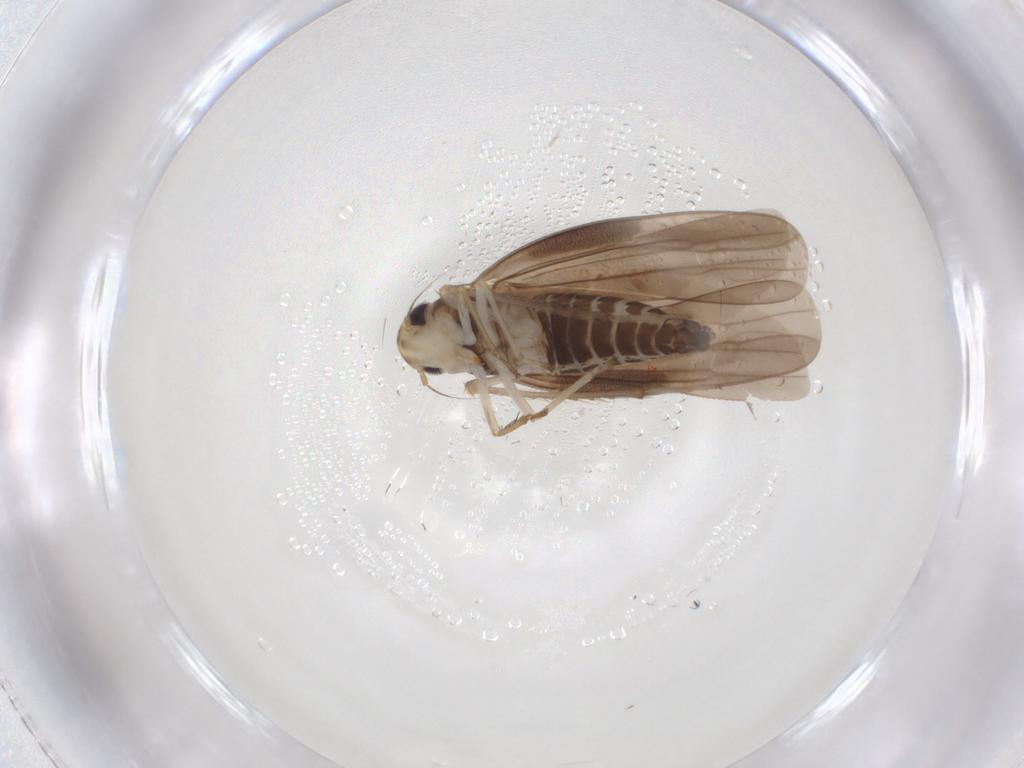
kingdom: Animalia
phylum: Arthropoda
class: Insecta
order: Hemiptera
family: Cicadellidae
